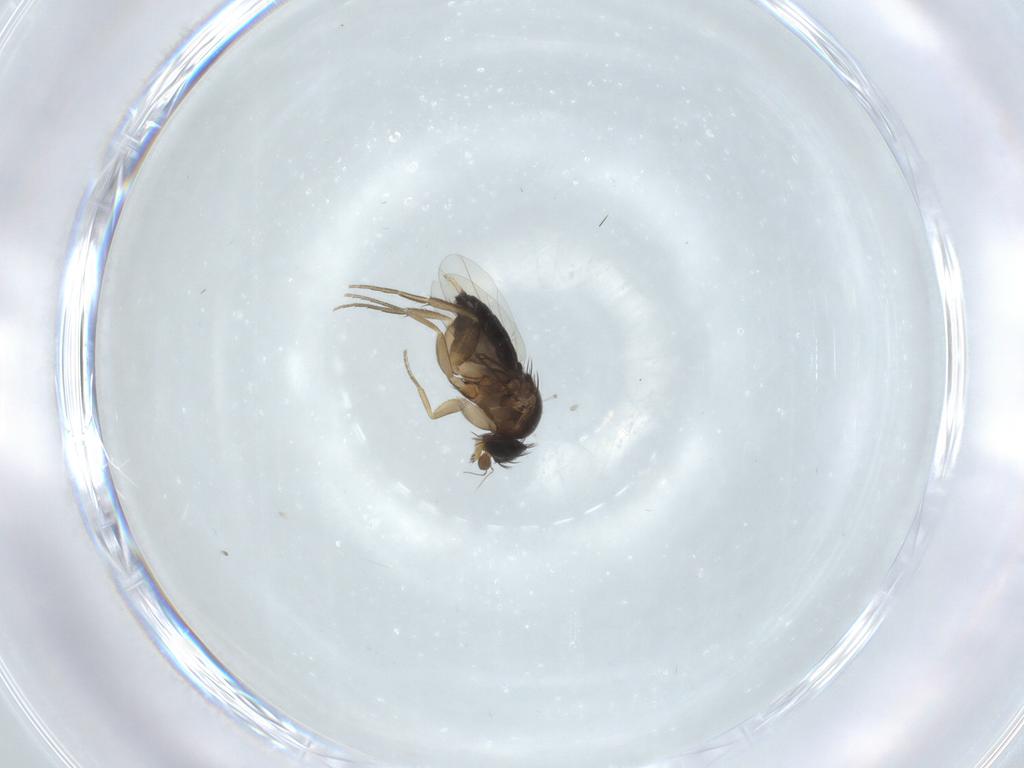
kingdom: Animalia
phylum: Arthropoda
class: Insecta
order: Diptera
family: Phoridae
